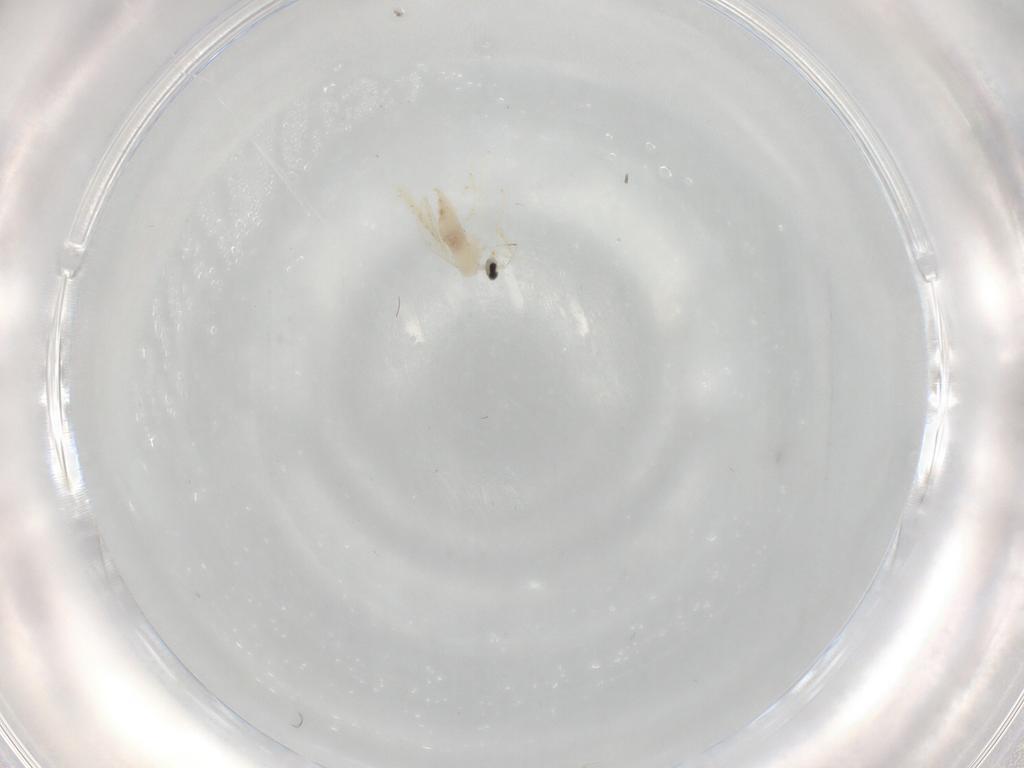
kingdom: Animalia
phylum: Arthropoda
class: Insecta
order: Diptera
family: Cecidomyiidae
